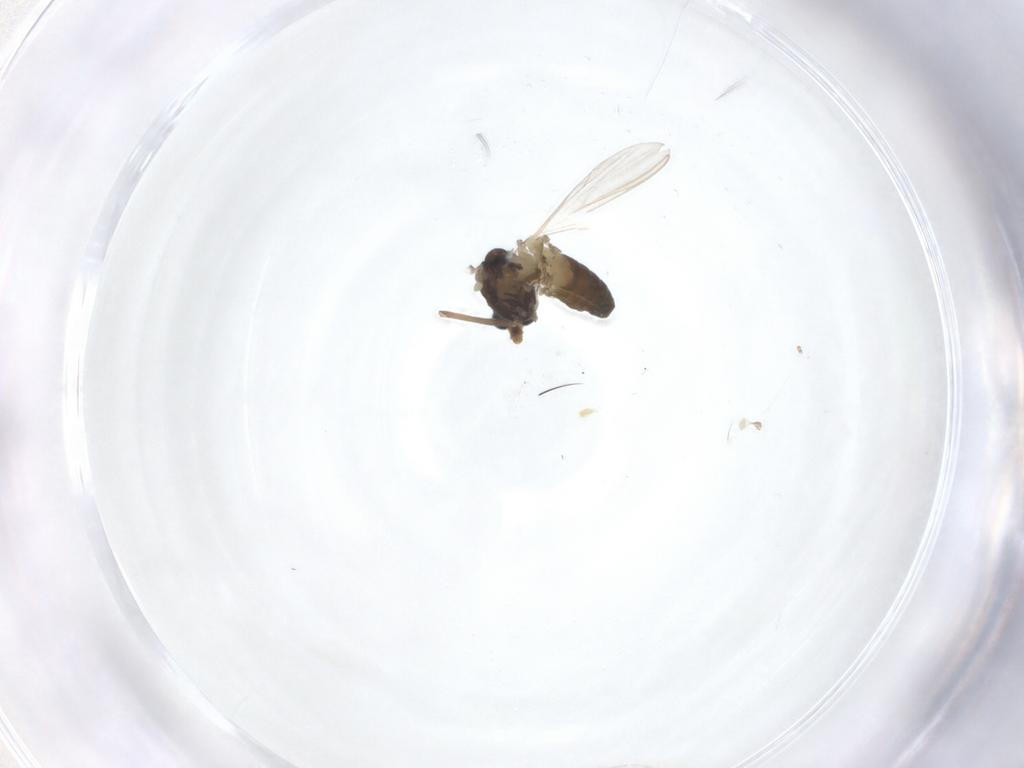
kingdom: Animalia
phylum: Arthropoda
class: Insecta
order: Diptera
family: Chironomidae
